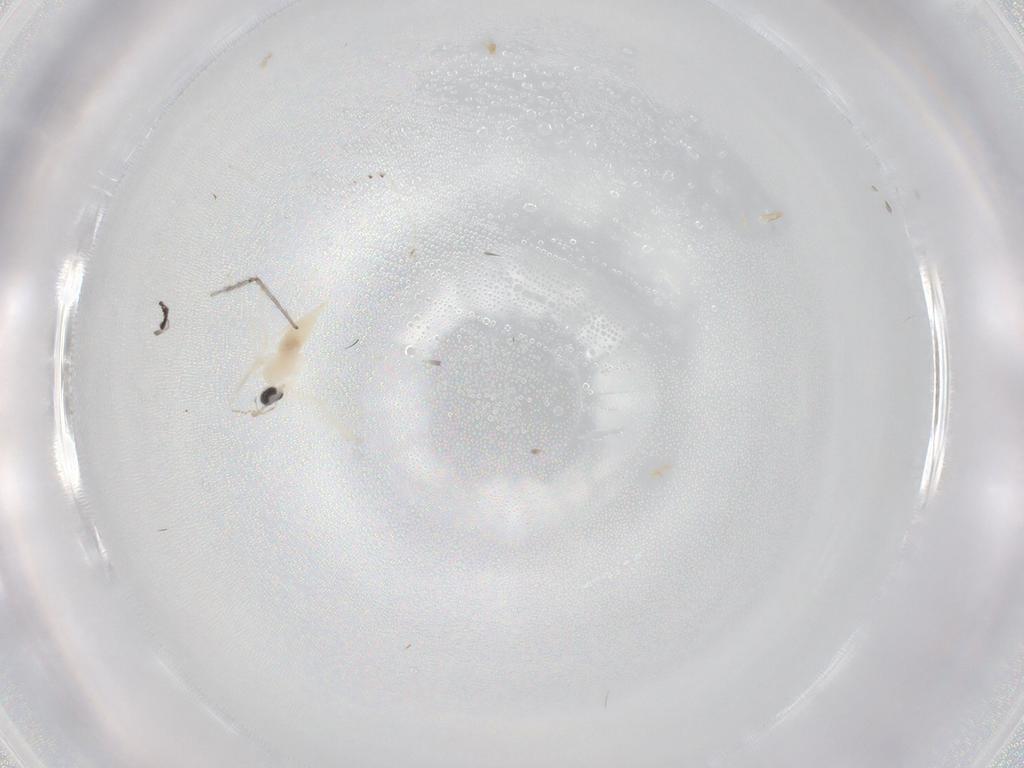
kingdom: Animalia
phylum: Arthropoda
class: Insecta
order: Diptera
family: Cecidomyiidae
